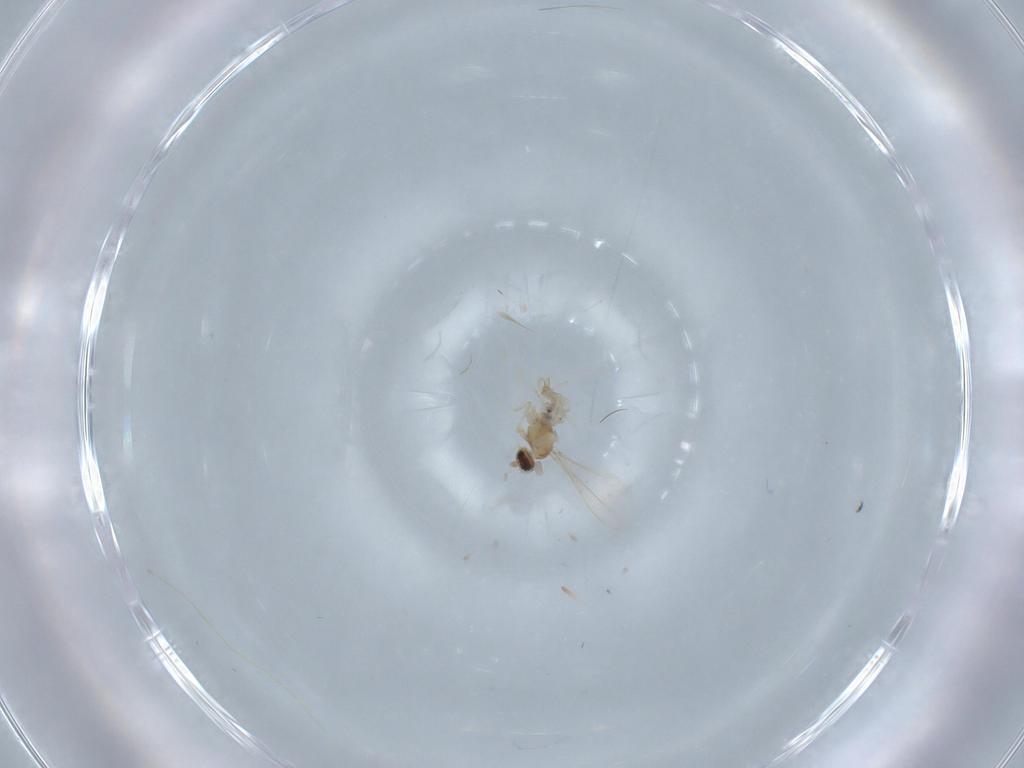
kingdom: Animalia
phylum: Arthropoda
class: Insecta
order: Diptera
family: Cecidomyiidae
